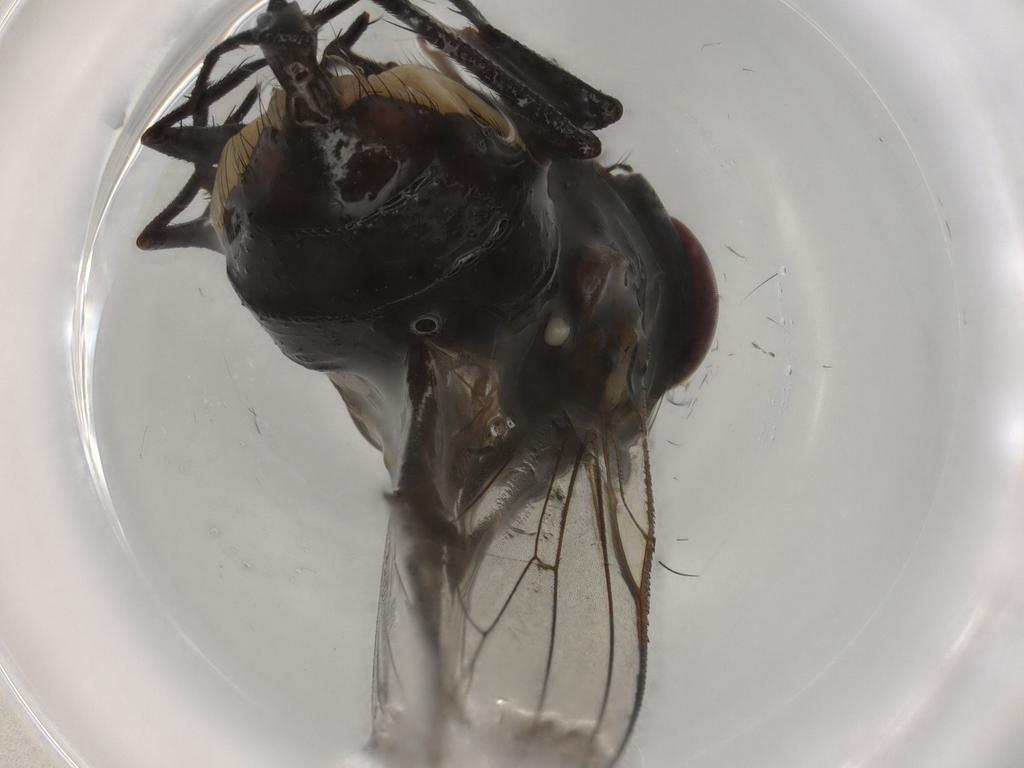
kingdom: Animalia
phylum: Arthropoda
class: Insecta
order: Diptera
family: Anthomyiidae
